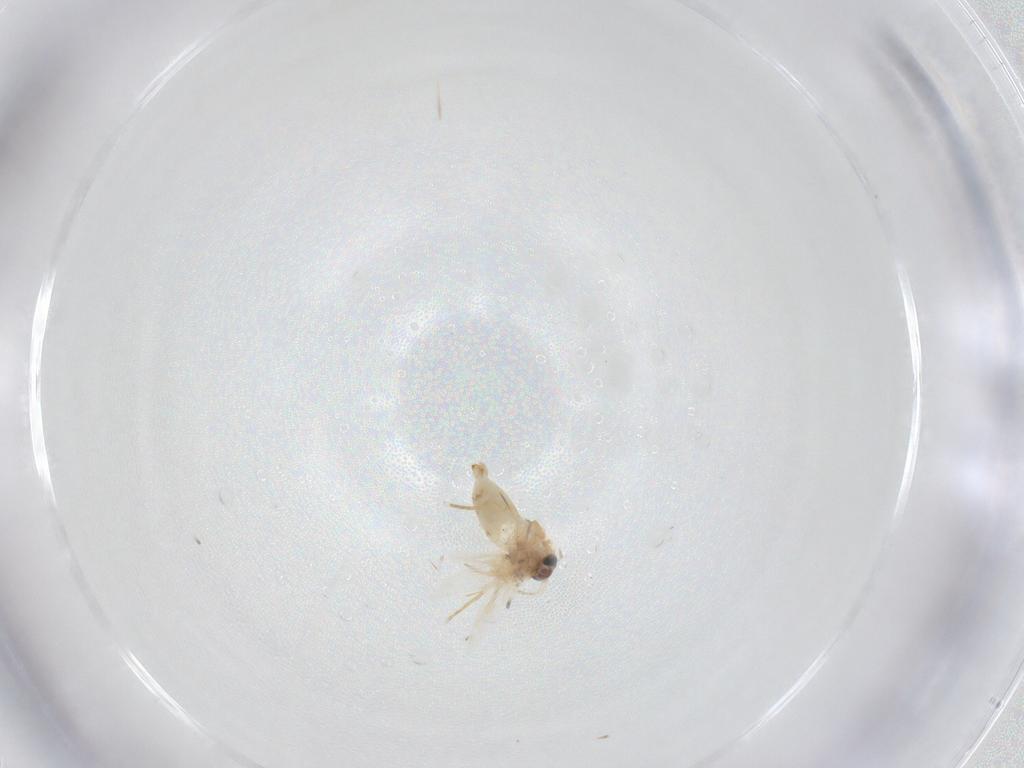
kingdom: Animalia
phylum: Arthropoda
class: Insecta
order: Lepidoptera
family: Crambidae
